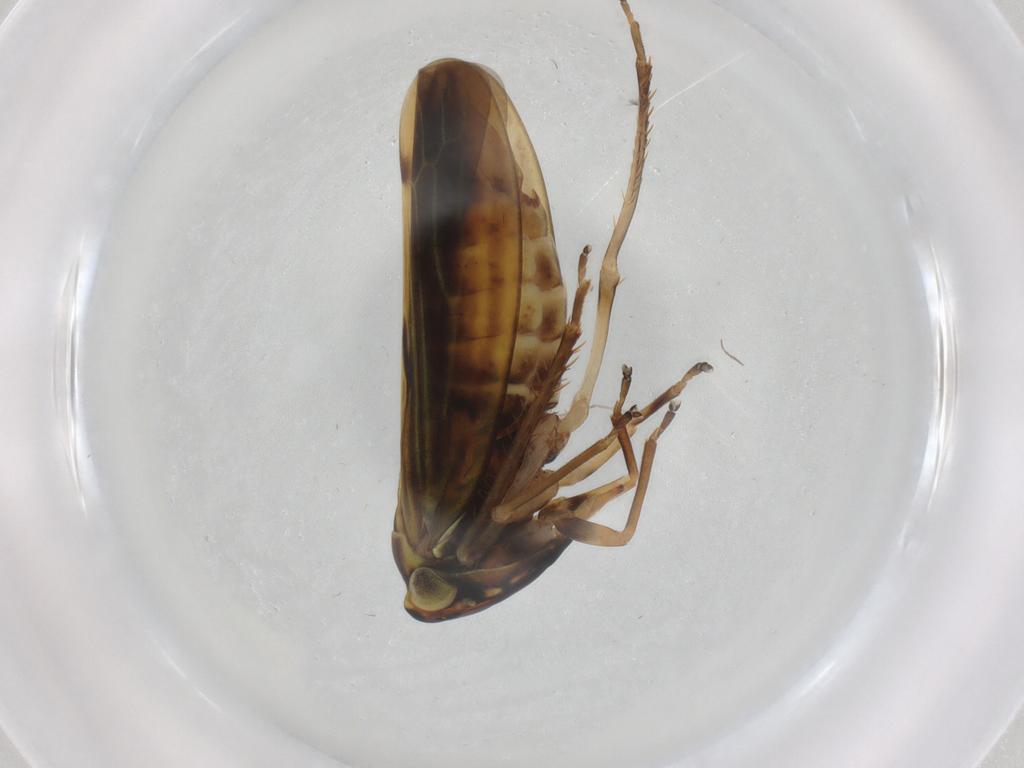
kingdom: Animalia
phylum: Arthropoda
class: Insecta
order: Hemiptera
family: Cicadellidae
